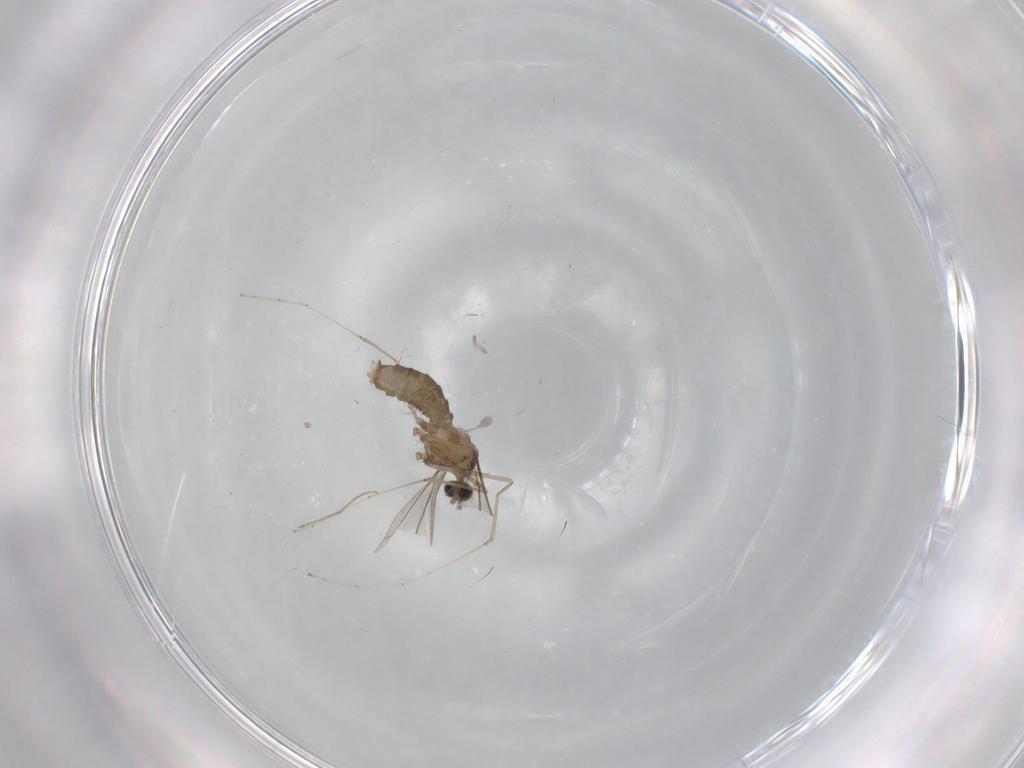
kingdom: Animalia
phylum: Arthropoda
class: Insecta
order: Diptera
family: Cecidomyiidae
